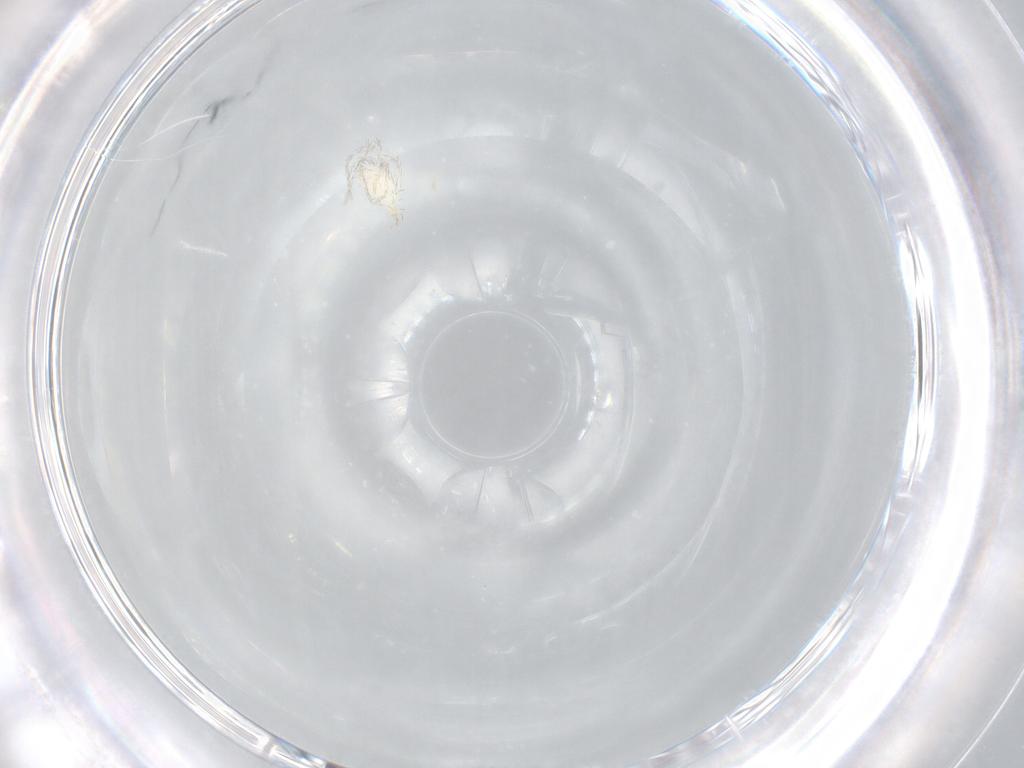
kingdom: Animalia
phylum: Arthropoda
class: Arachnida
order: Trombidiformes
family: Smarididae
